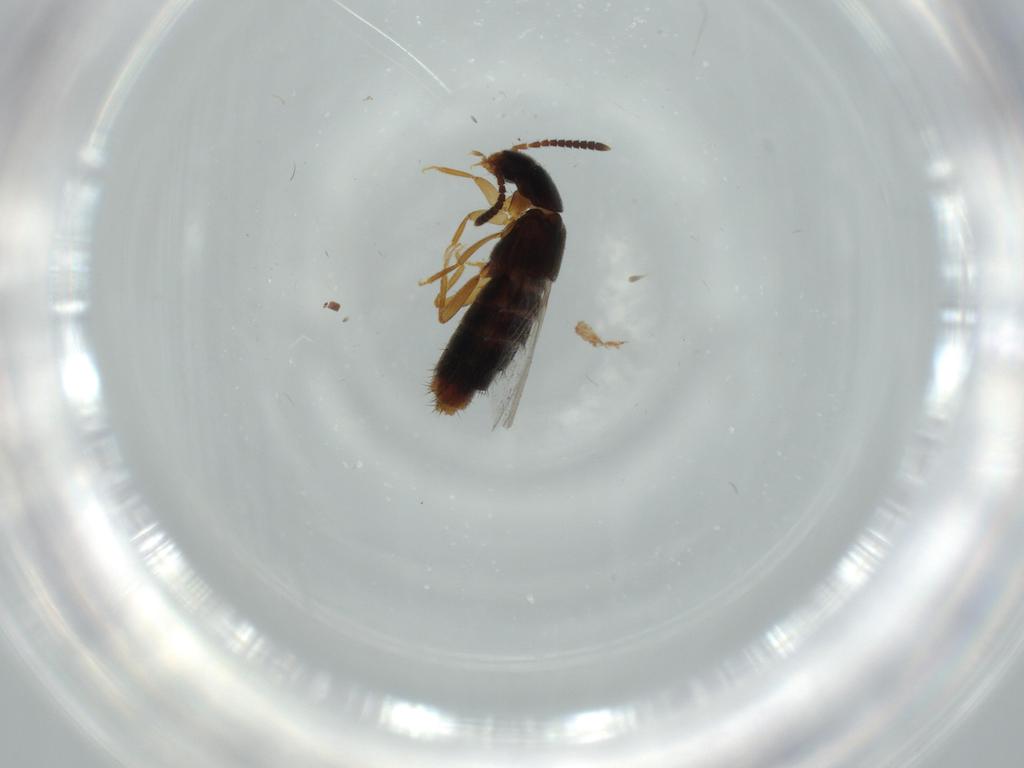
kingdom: Animalia
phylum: Arthropoda
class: Insecta
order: Coleoptera
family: Staphylinidae
